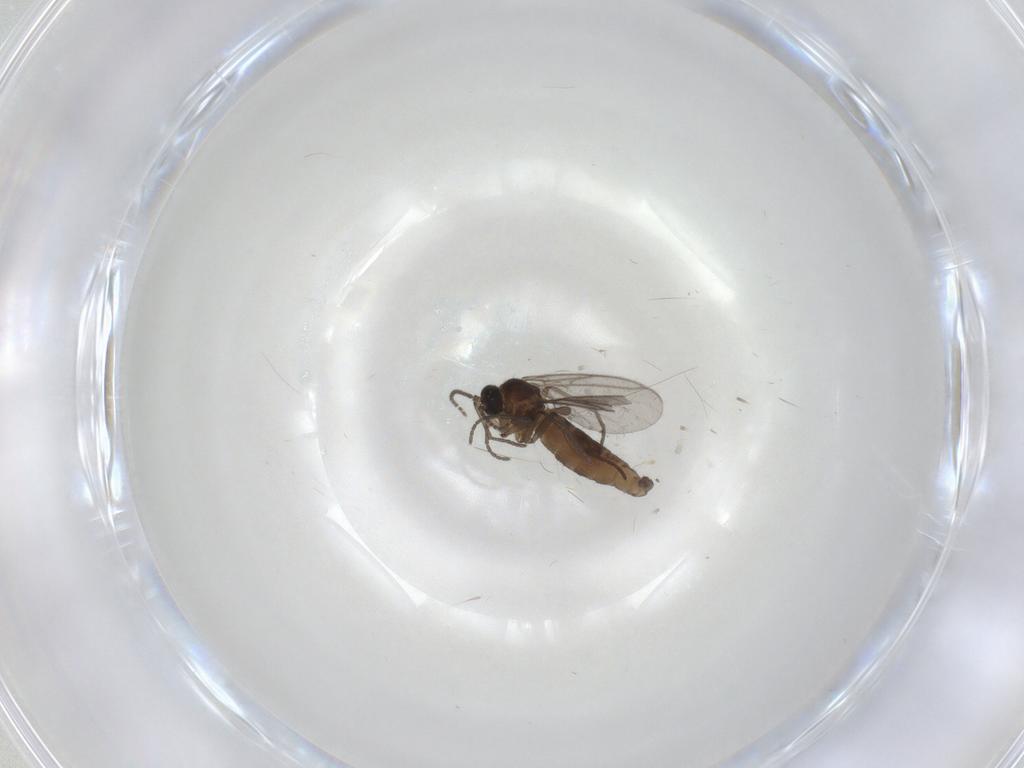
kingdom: Animalia
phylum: Arthropoda
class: Insecta
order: Diptera
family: Cecidomyiidae
